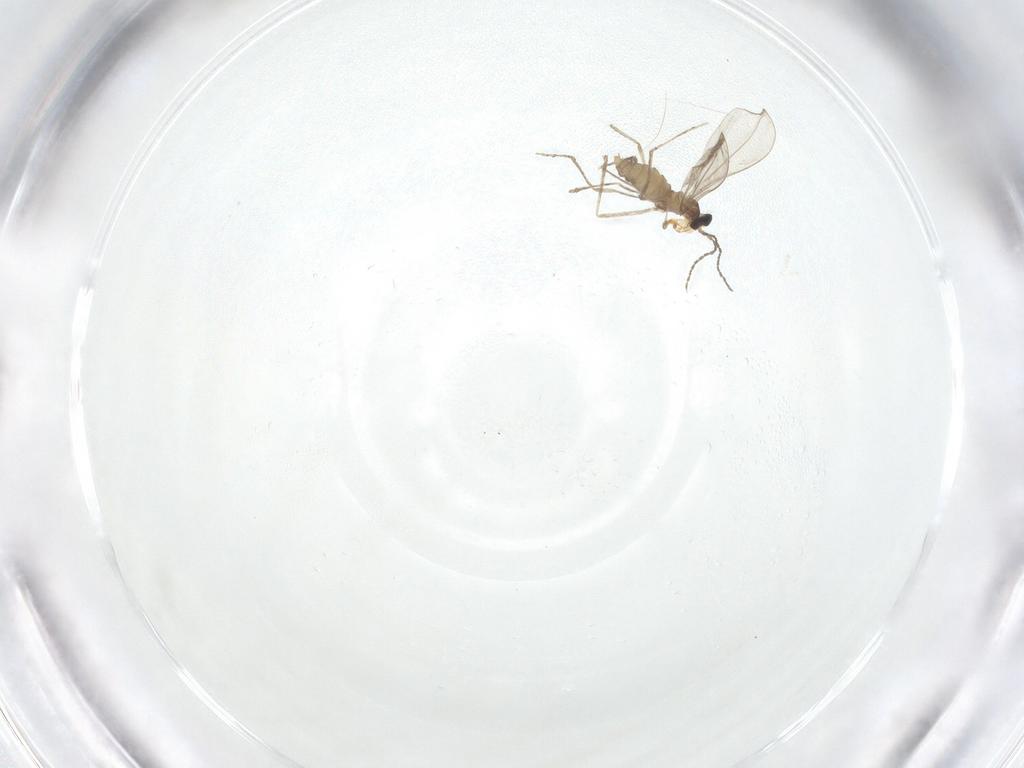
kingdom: Animalia
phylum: Arthropoda
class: Insecta
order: Diptera
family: Cecidomyiidae
